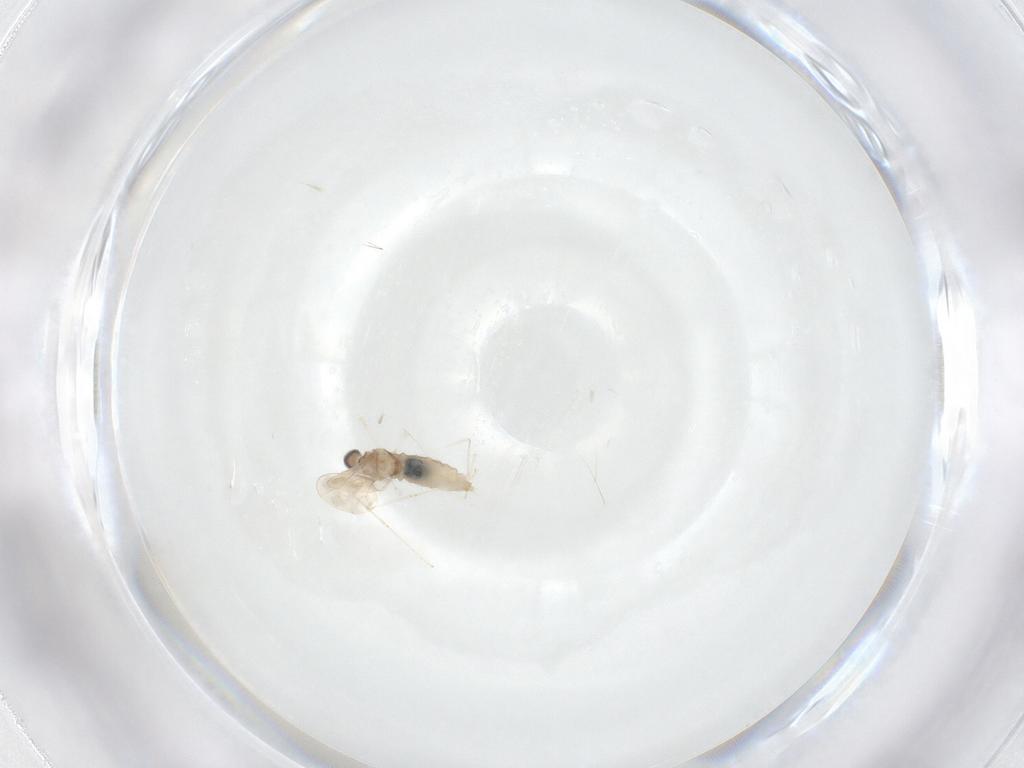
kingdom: Animalia
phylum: Arthropoda
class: Insecta
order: Diptera
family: Cecidomyiidae
